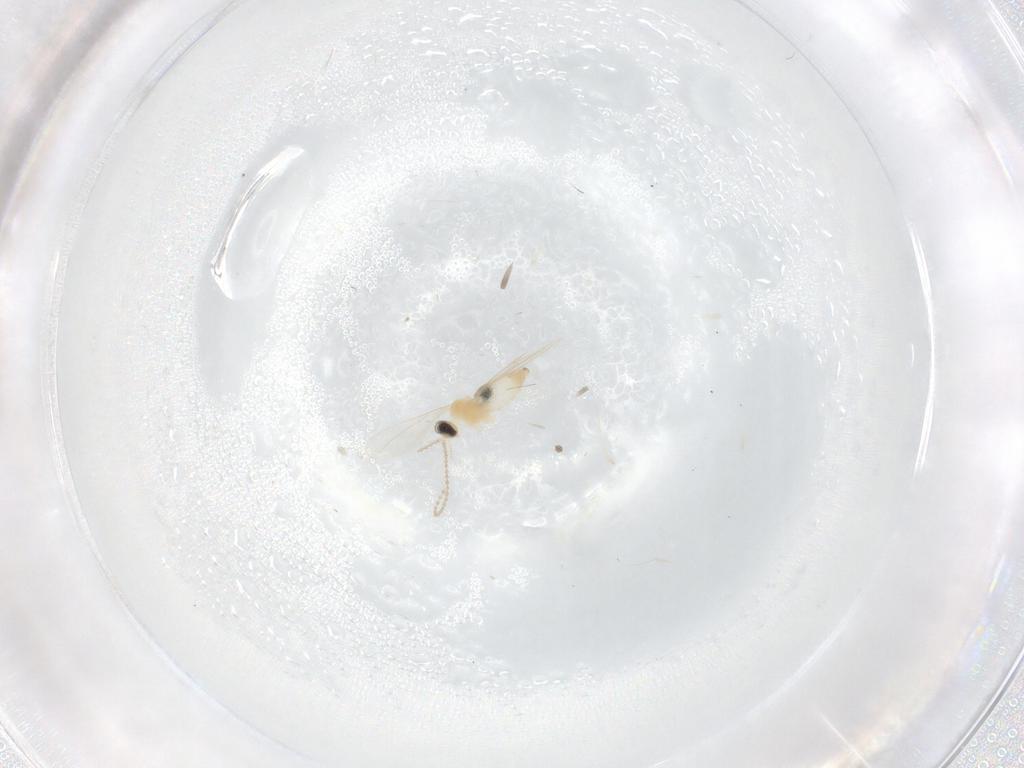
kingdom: Animalia
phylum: Arthropoda
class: Insecta
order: Diptera
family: Cecidomyiidae
